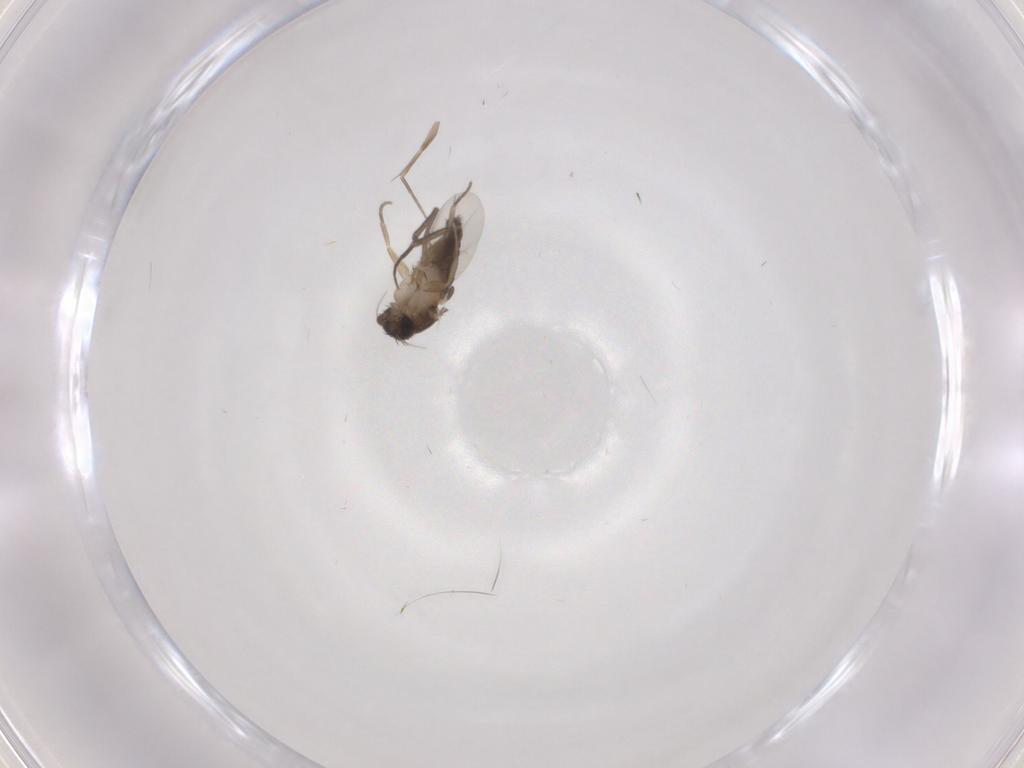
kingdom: Animalia
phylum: Arthropoda
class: Insecta
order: Diptera
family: Phoridae
